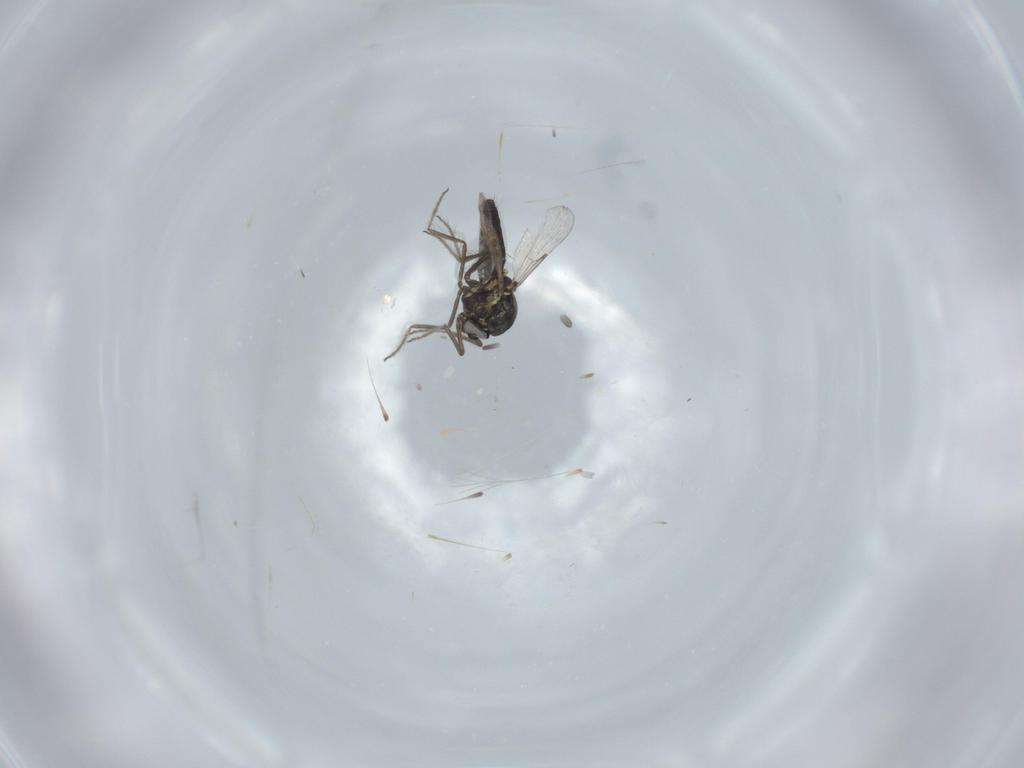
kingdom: Animalia
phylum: Arthropoda
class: Insecta
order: Diptera
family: Ceratopogonidae
